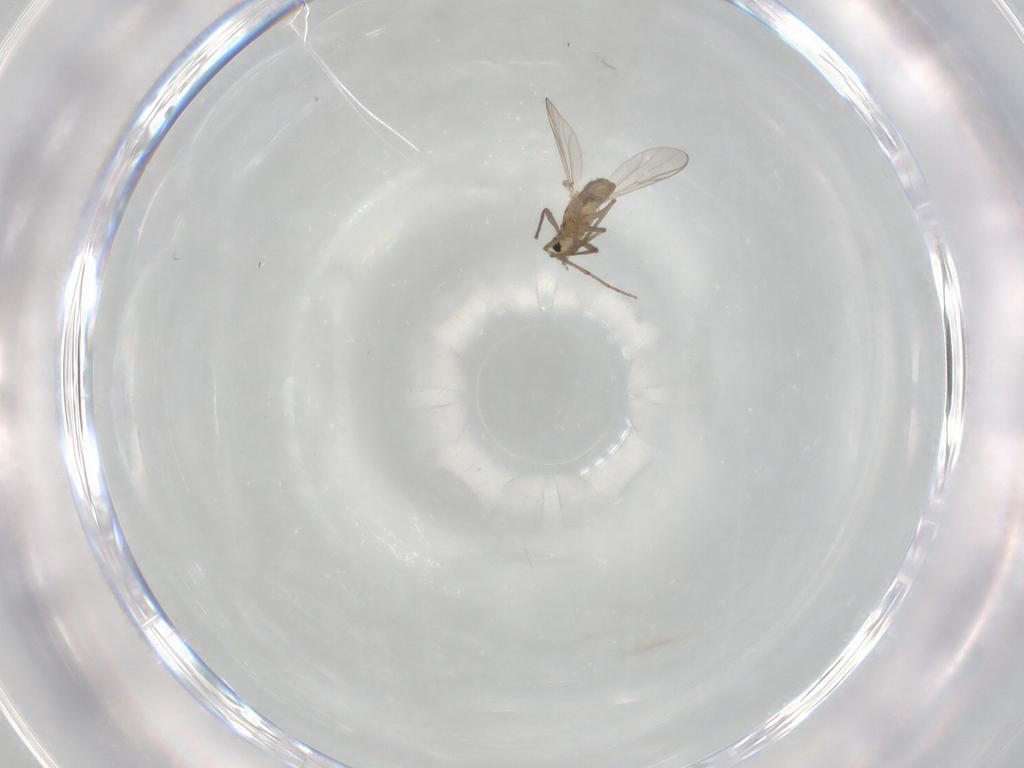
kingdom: Animalia
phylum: Arthropoda
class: Insecta
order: Diptera
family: Chironomidae
